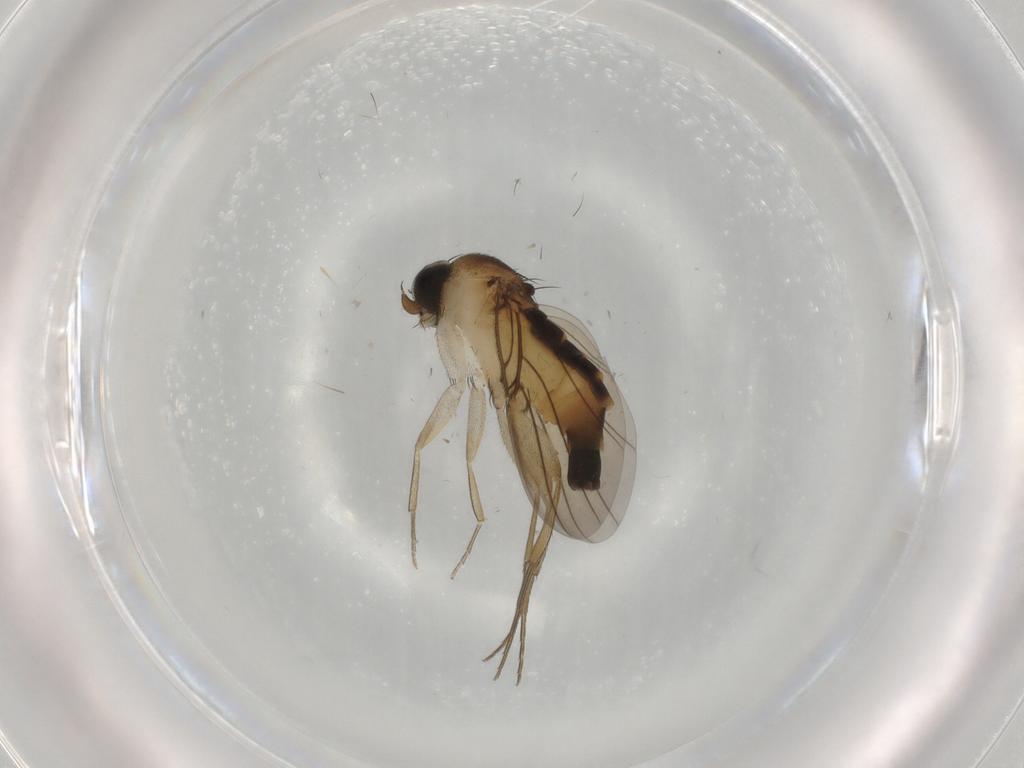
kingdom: Animalia
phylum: Arthropoda
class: Insecta
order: Diptera
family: Phoridae
